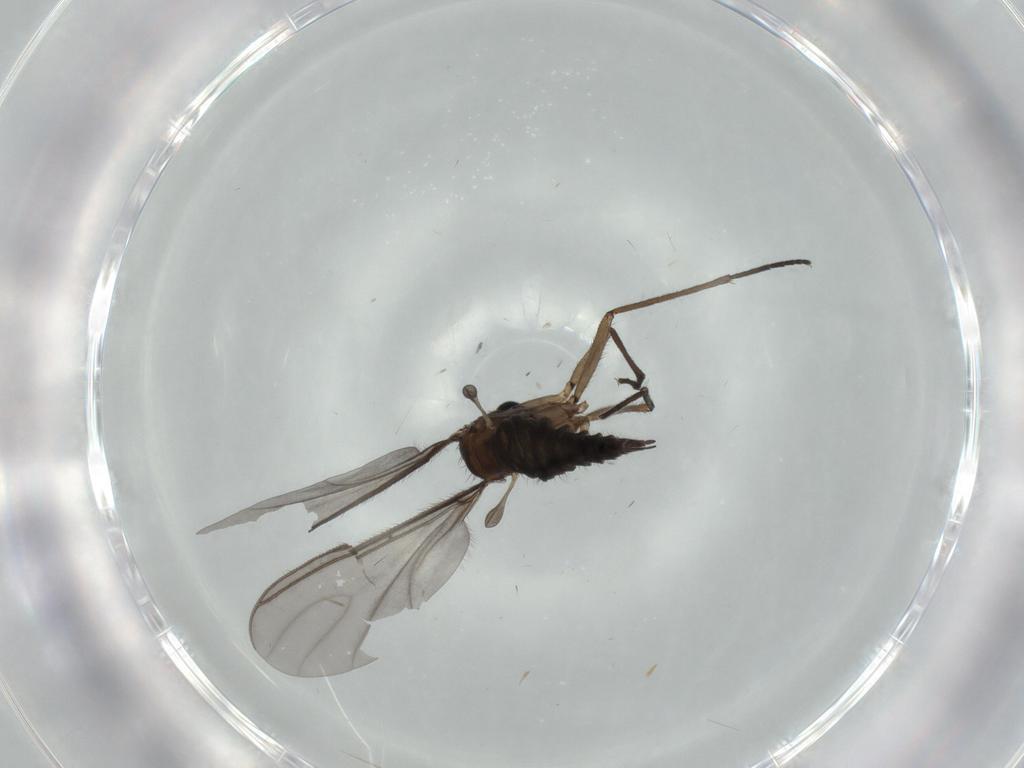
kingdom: Animalia
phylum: Arthropoda
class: Insecta
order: Diptera
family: Sciaridae
